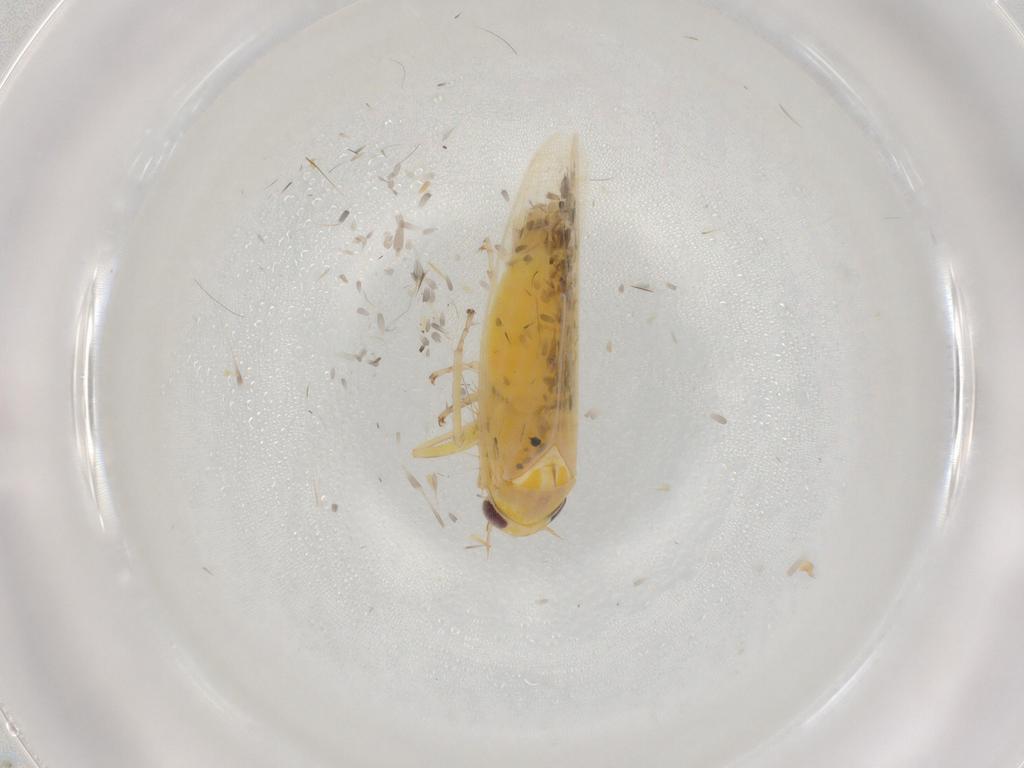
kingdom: Animalia
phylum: Arthropoda
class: Insecta
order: Hemiptera
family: Cicadellidae
